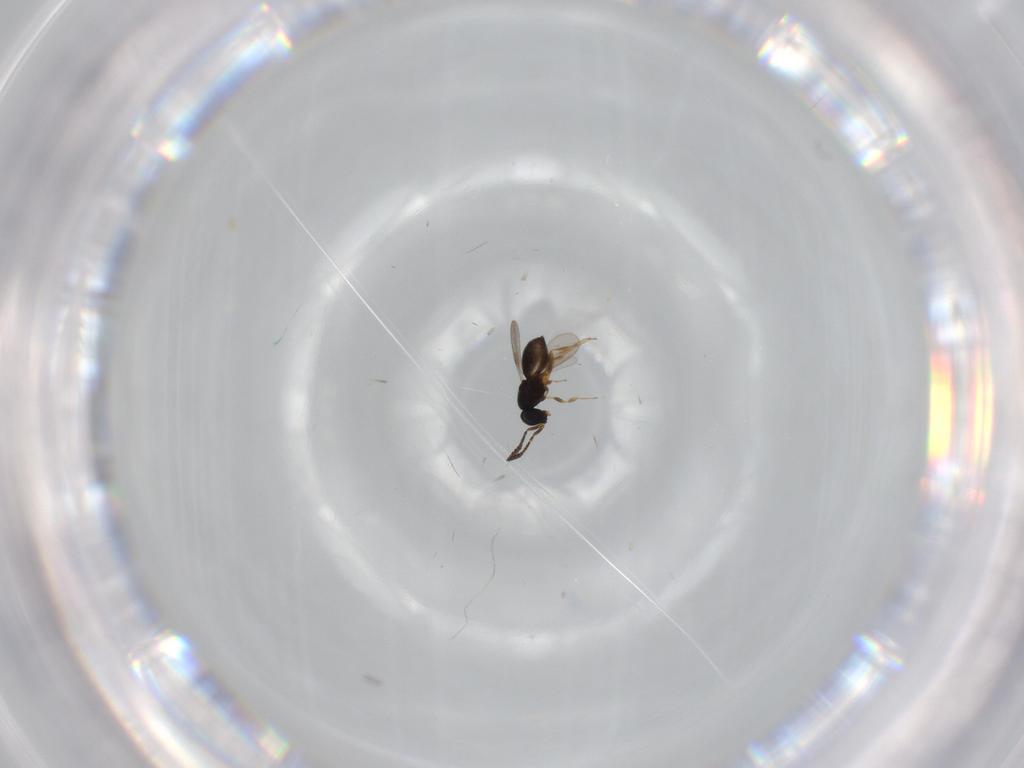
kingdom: Animalia
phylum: Arthropoda
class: Insecta
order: Hymenoptera
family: Scelionidae
